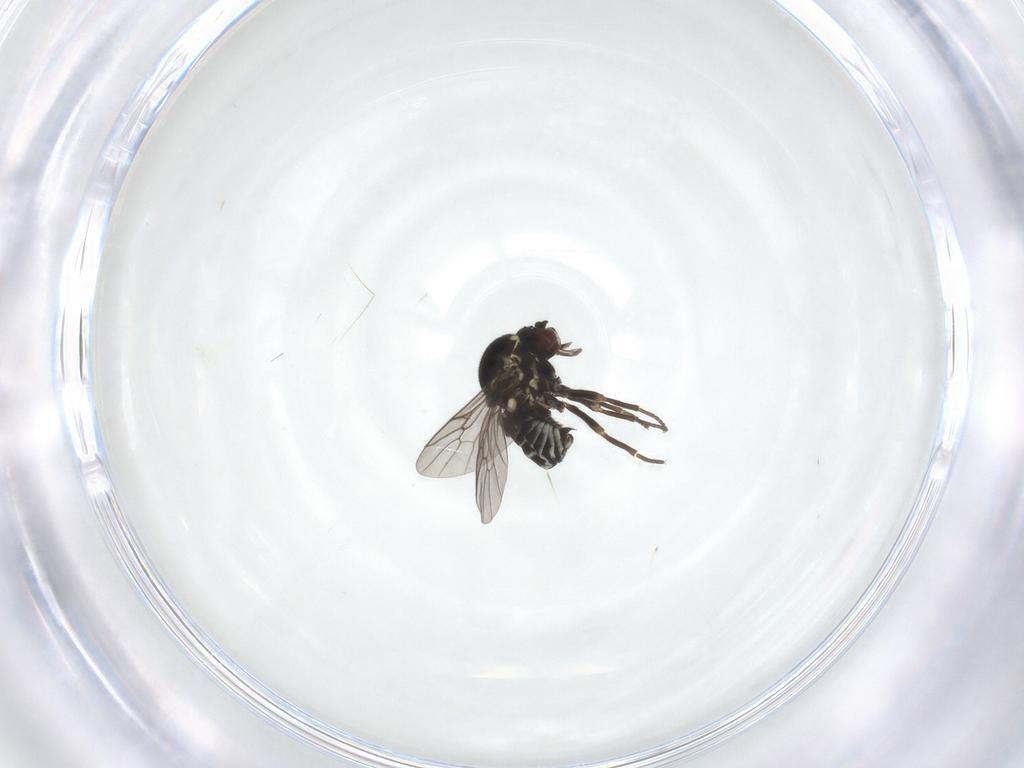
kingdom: Animalia
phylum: Arthropoda
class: Insecta
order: Diptera
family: Bombyliidae
